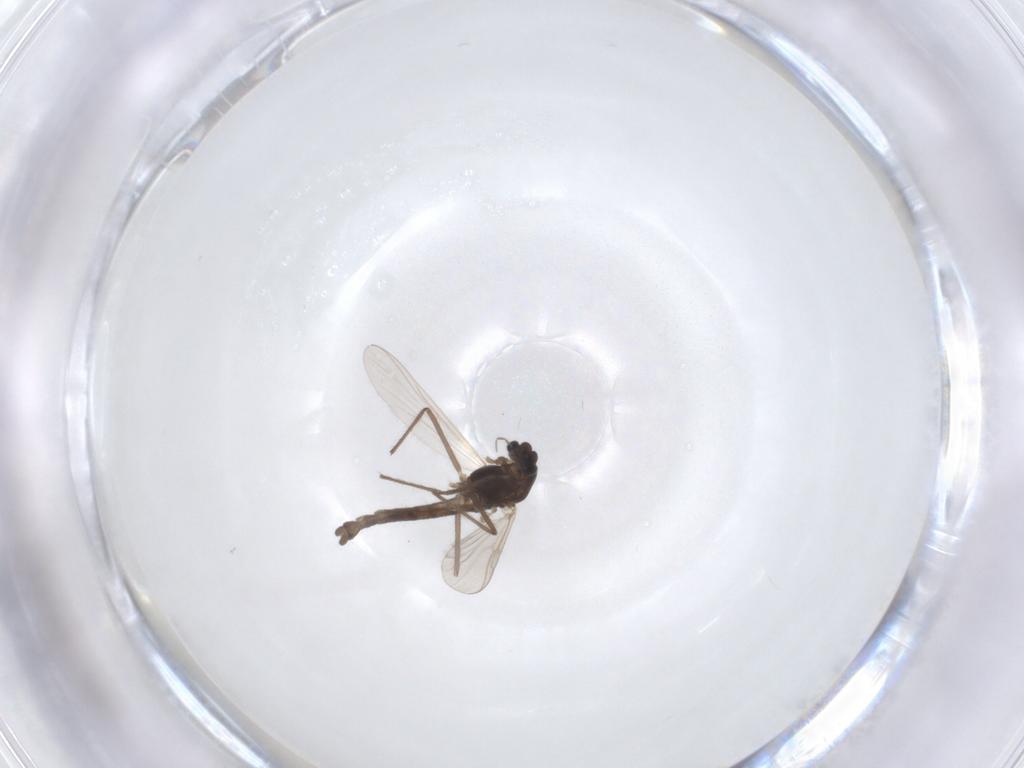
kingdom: Animalia
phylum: Arthropoda
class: Insecta
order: Diptera
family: Chironomidae
